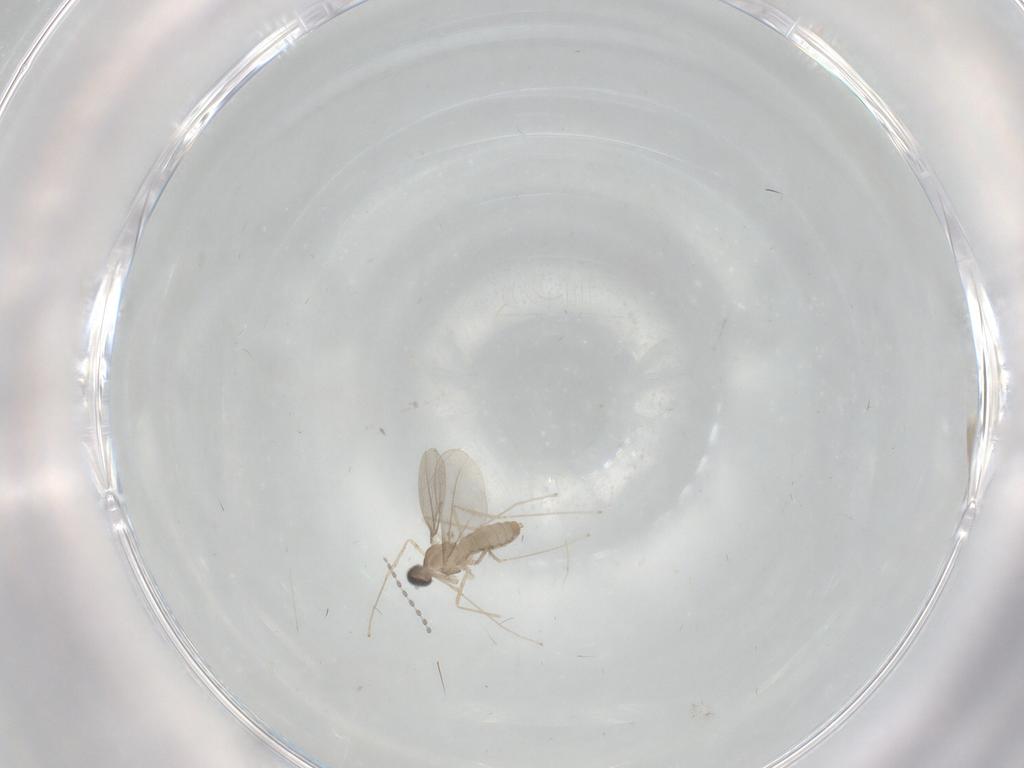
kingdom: Animalia
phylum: Arthropoda
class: Insecta
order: Diptera
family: Cecidomyiidae
